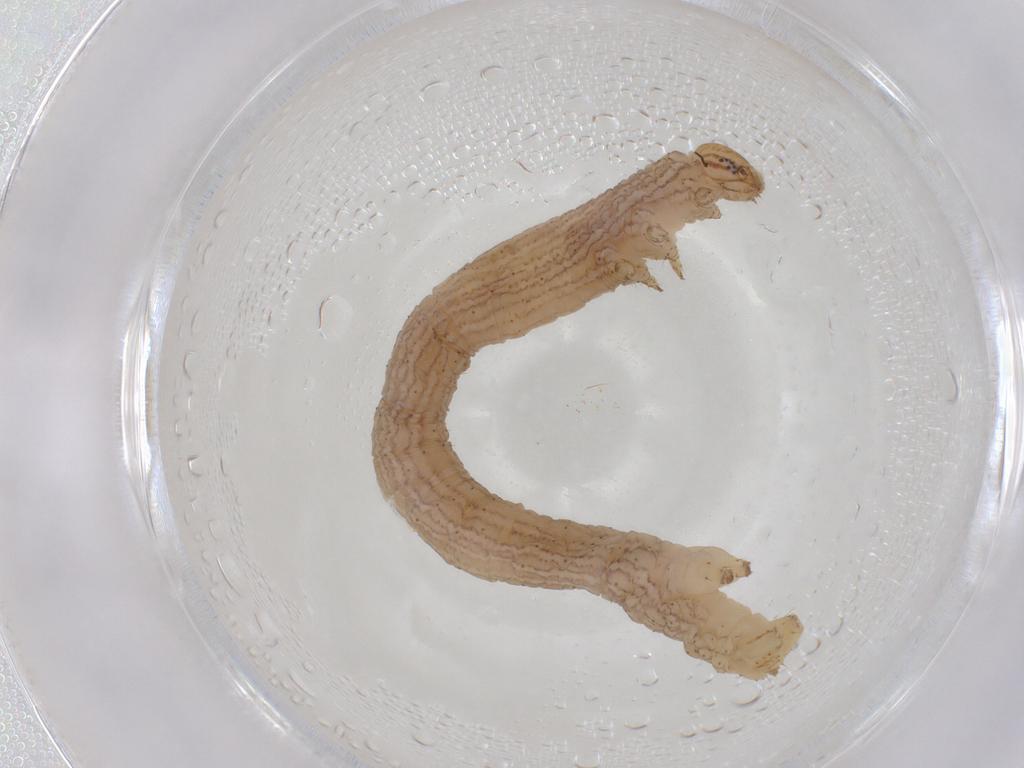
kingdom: Animalia
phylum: Arthropoda
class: Insecta
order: Lepidoptera
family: Geometridae
